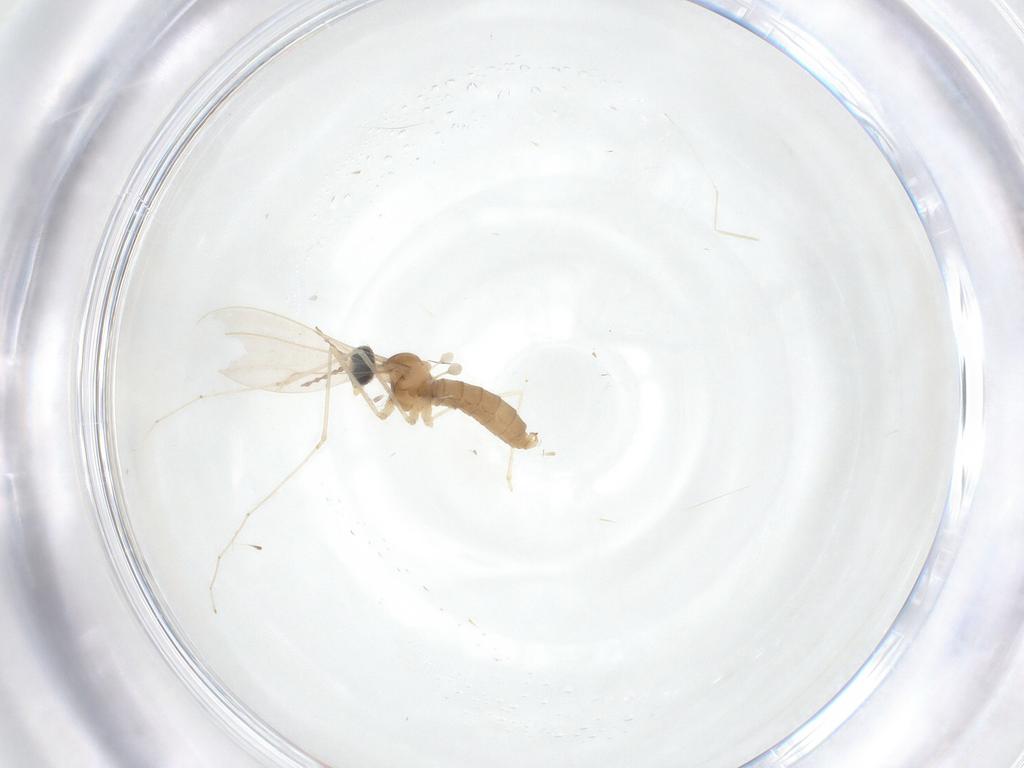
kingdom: Animalia
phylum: Arthropoda
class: Insecta
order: Diptera
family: Cecidomyiidae
